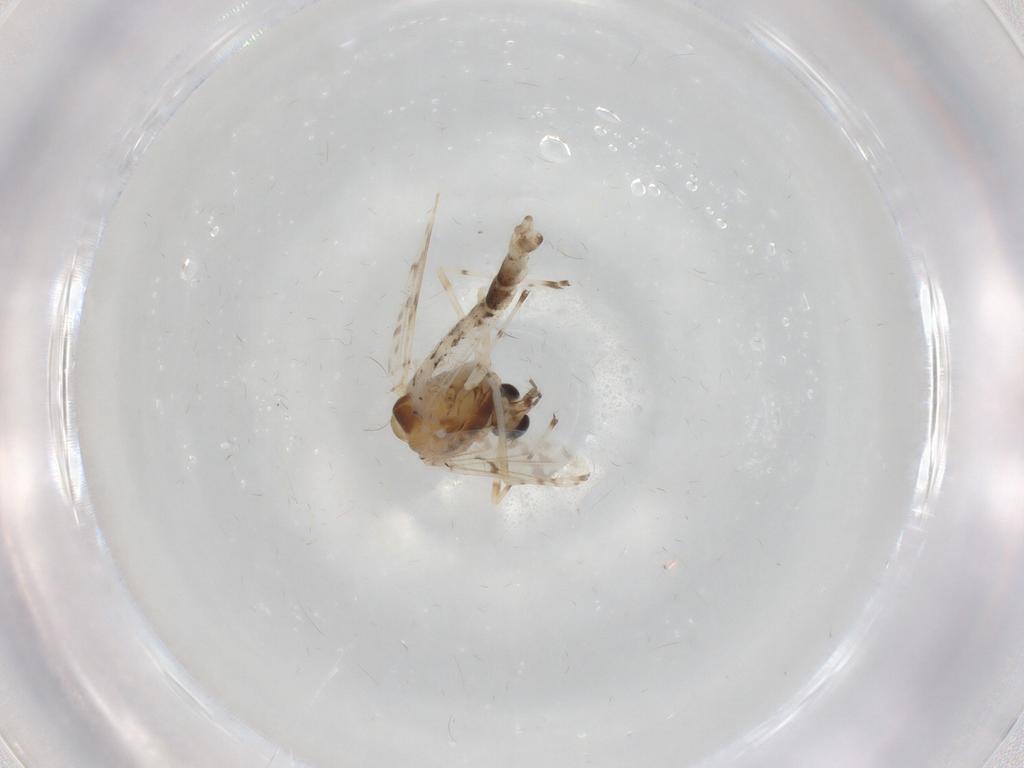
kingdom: Animalia
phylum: Arthropoda
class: Insecta
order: Diptera
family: Chironomidae
